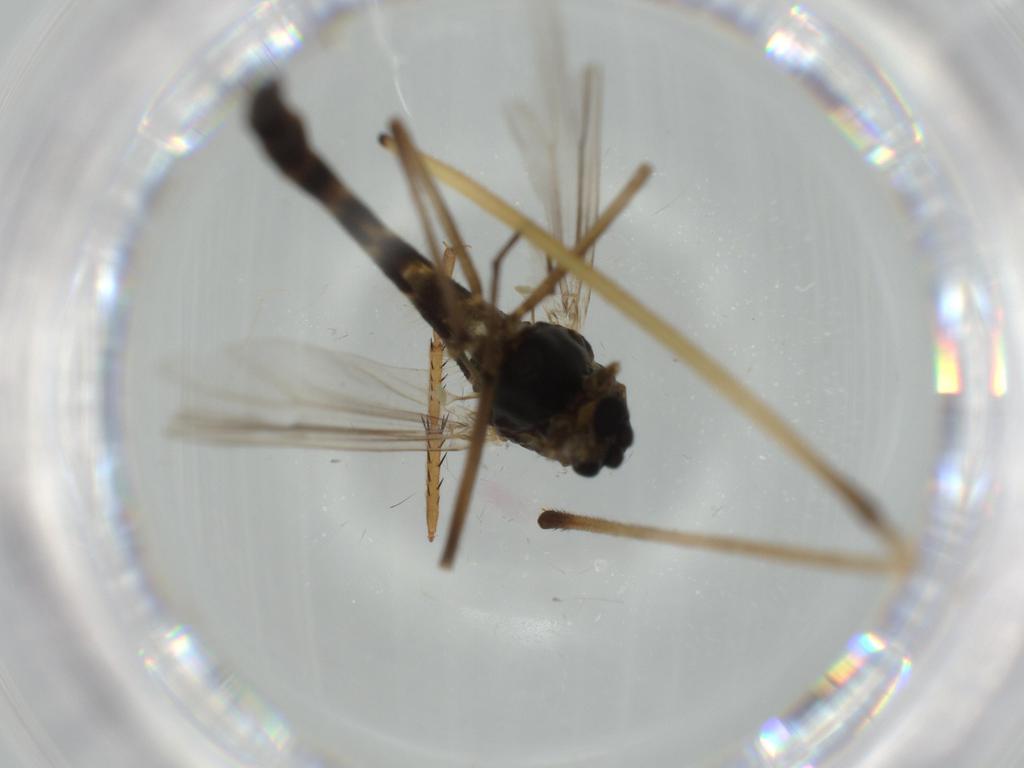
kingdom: Animalia
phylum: Arthropoda
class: Insecta
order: Diptera
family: Chironomidae
